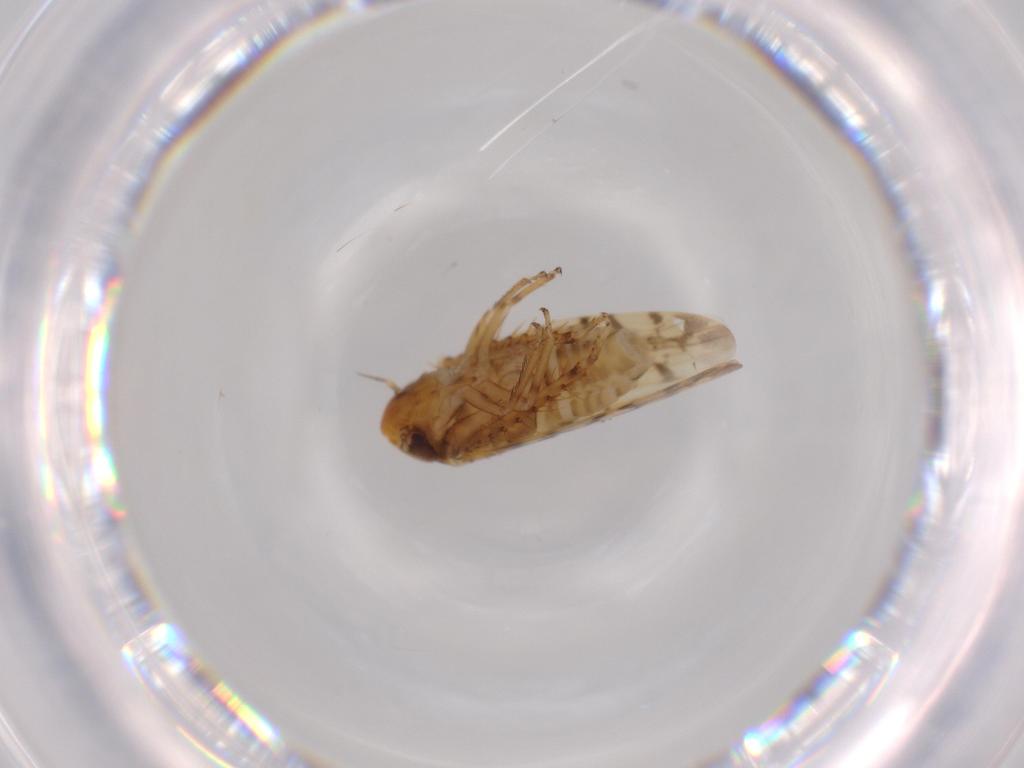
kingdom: Animalia
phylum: Arthropoda
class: Insecta
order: Hemiptera
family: Cicadellidae
